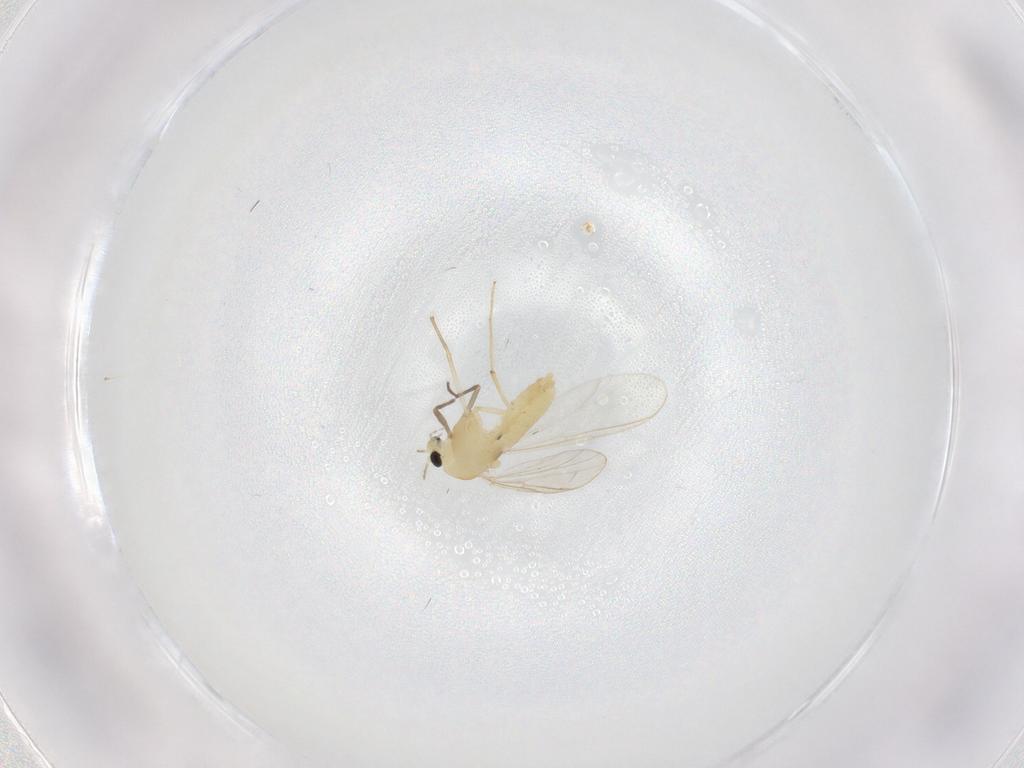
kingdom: Animalia
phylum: Arthropoda
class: Insecta
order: Diptera
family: Chironomidae
